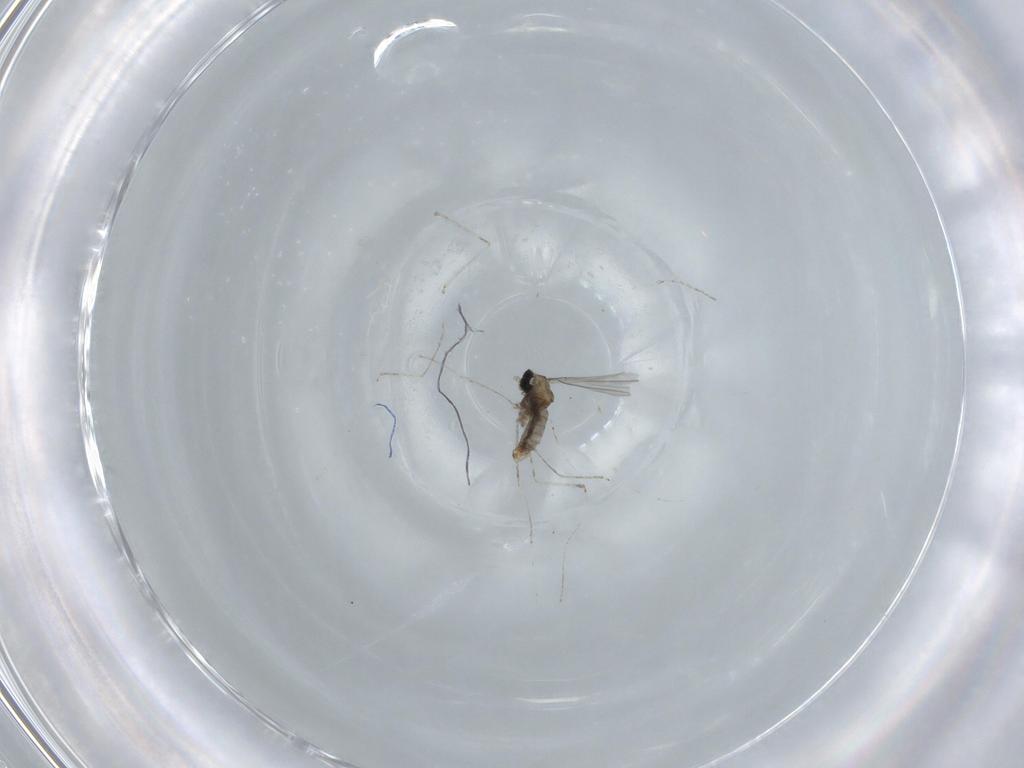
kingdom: Animalia
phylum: Arthropoda
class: Insecta
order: Diptera
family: Cecidomyiidae
